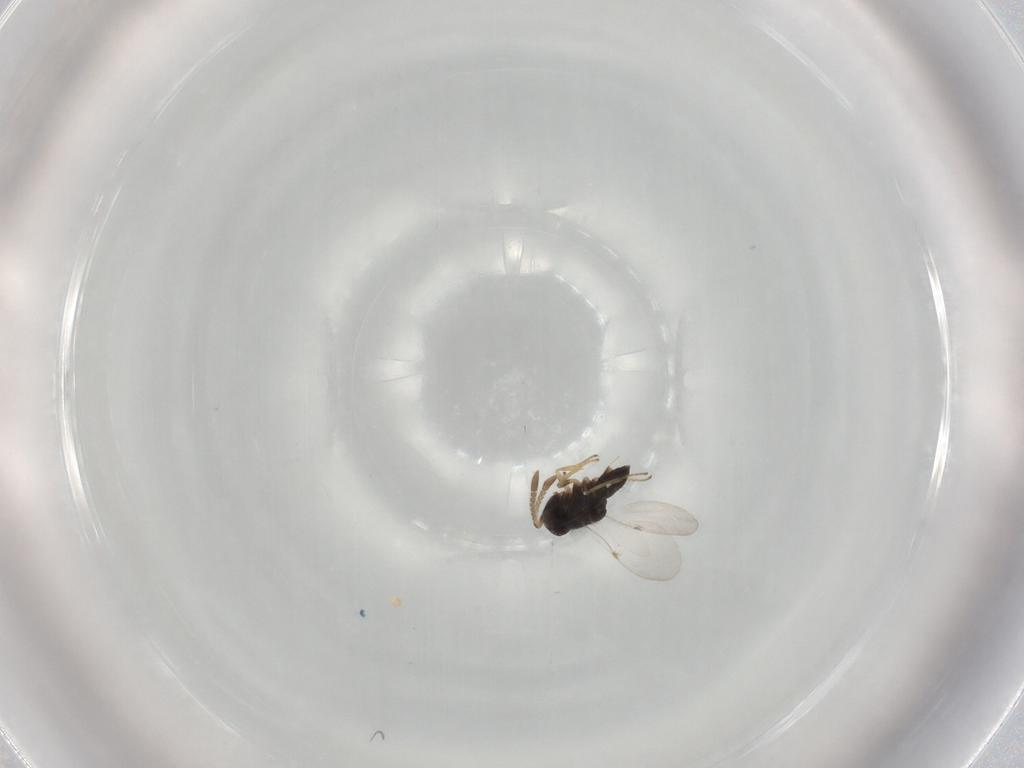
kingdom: Animalia
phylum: Arthropoda
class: Insecta
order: Hymenoptera
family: Encyrtidae
